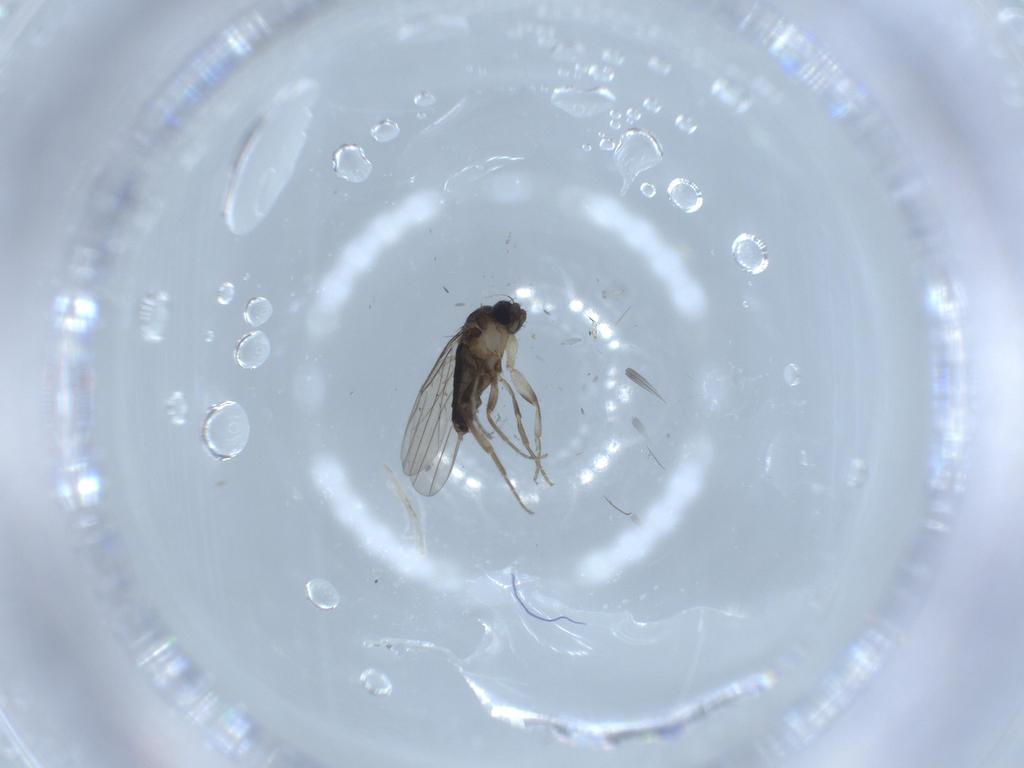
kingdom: Animalia
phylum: Arthropoda
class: Insecta
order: Diptera
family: Phoridae
